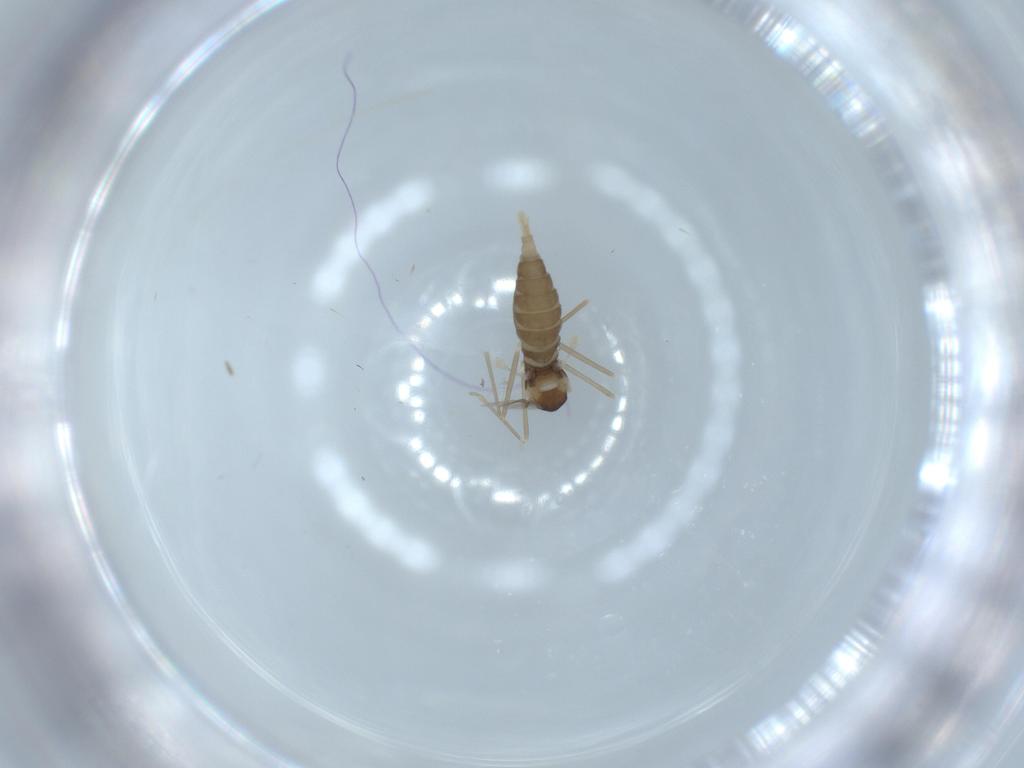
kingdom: Animalia
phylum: Arthropoda
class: Insecta
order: Diptera
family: Cecidomyiidae
